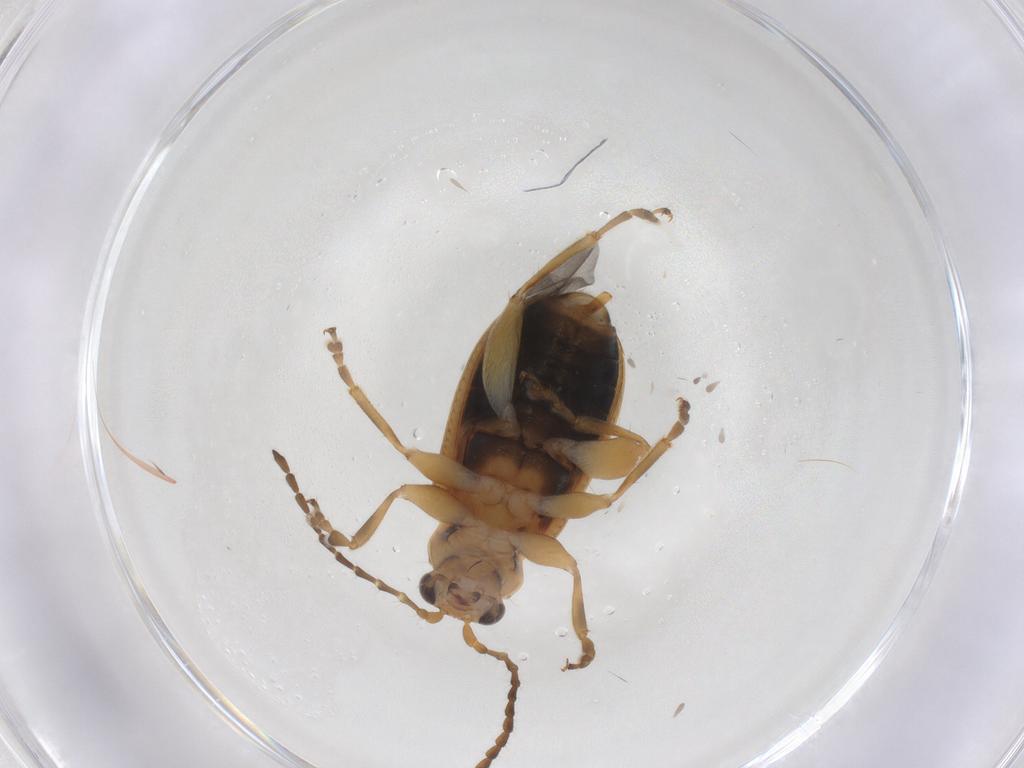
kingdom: Animalia
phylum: Arthropoda
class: Insecta
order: Coleoptera
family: Chrysomelidae
